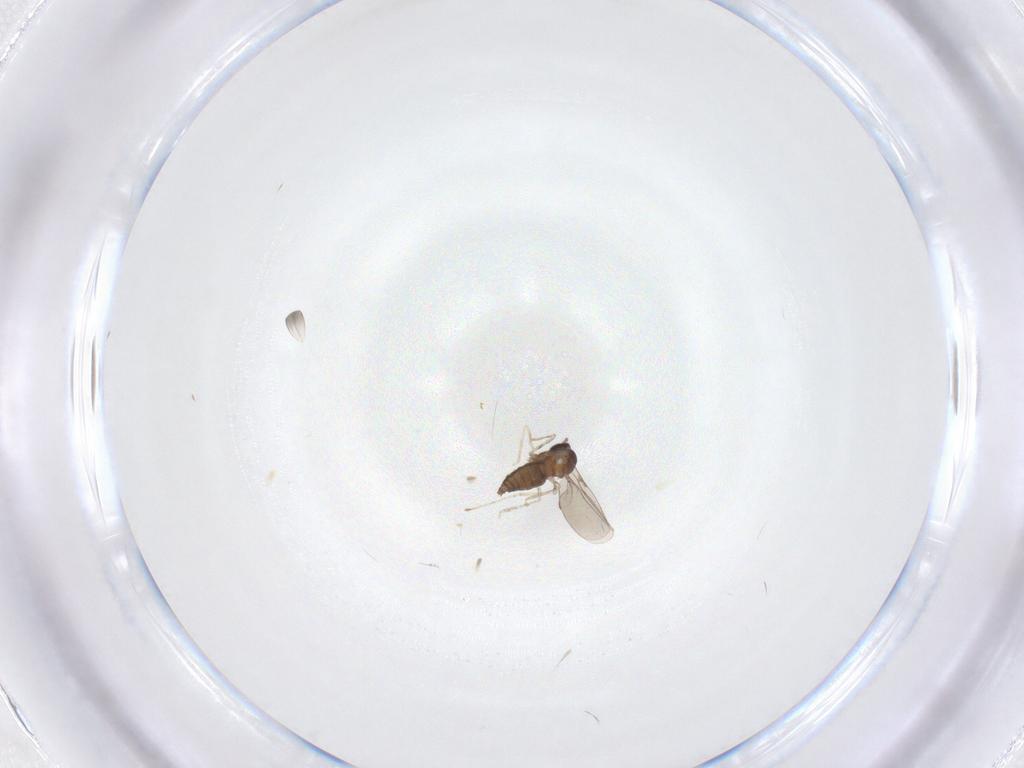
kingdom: Animalia
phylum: Arthropoda
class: Insecta
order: Diptera
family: Cecidomyiidae
